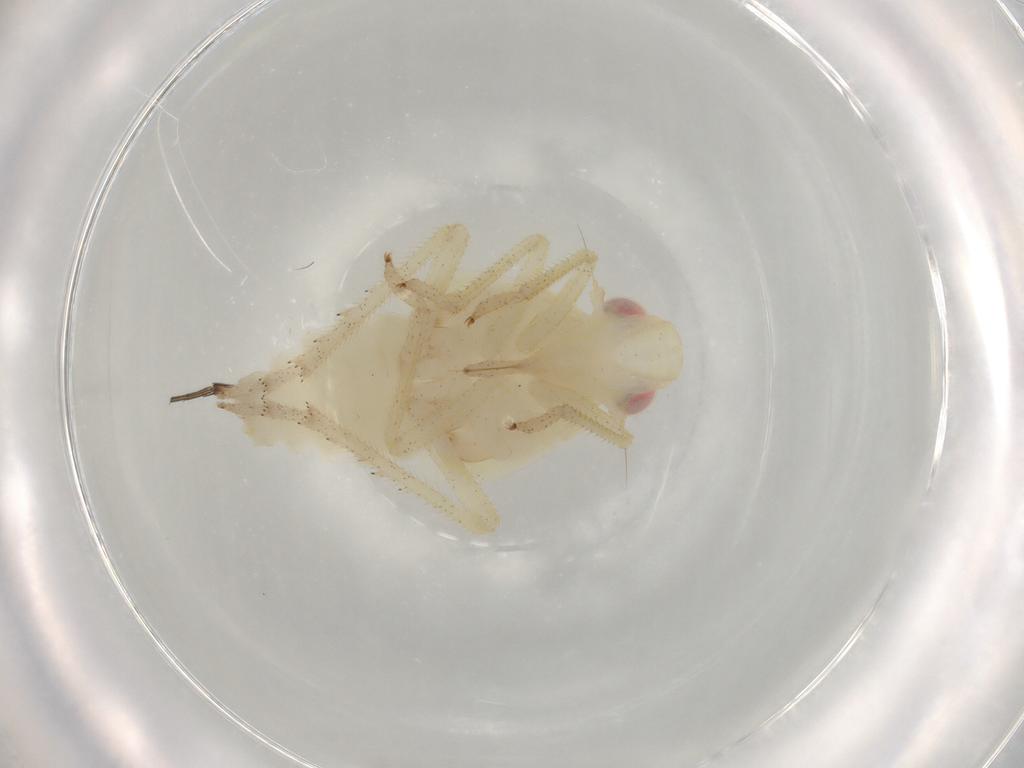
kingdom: Animalia
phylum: Arthropoda
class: Insecta
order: Hemiptera
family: Tropiduchidae
